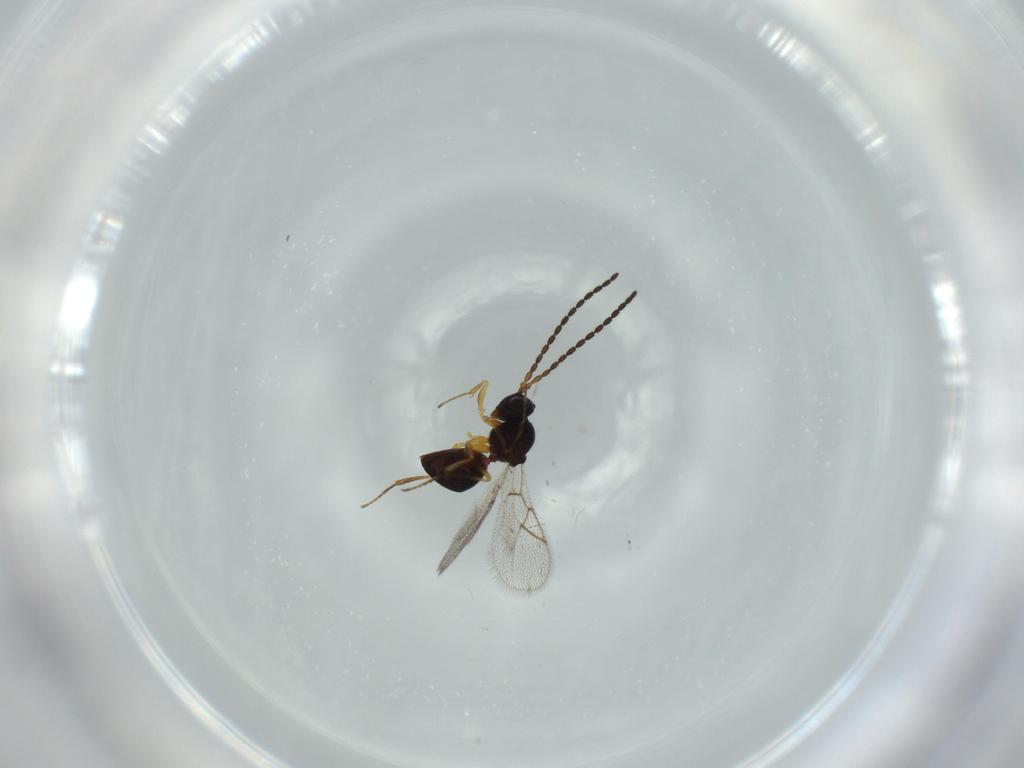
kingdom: Animalia
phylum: Arthropoda
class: Insecta
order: Hymenoptera
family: Figitidae
